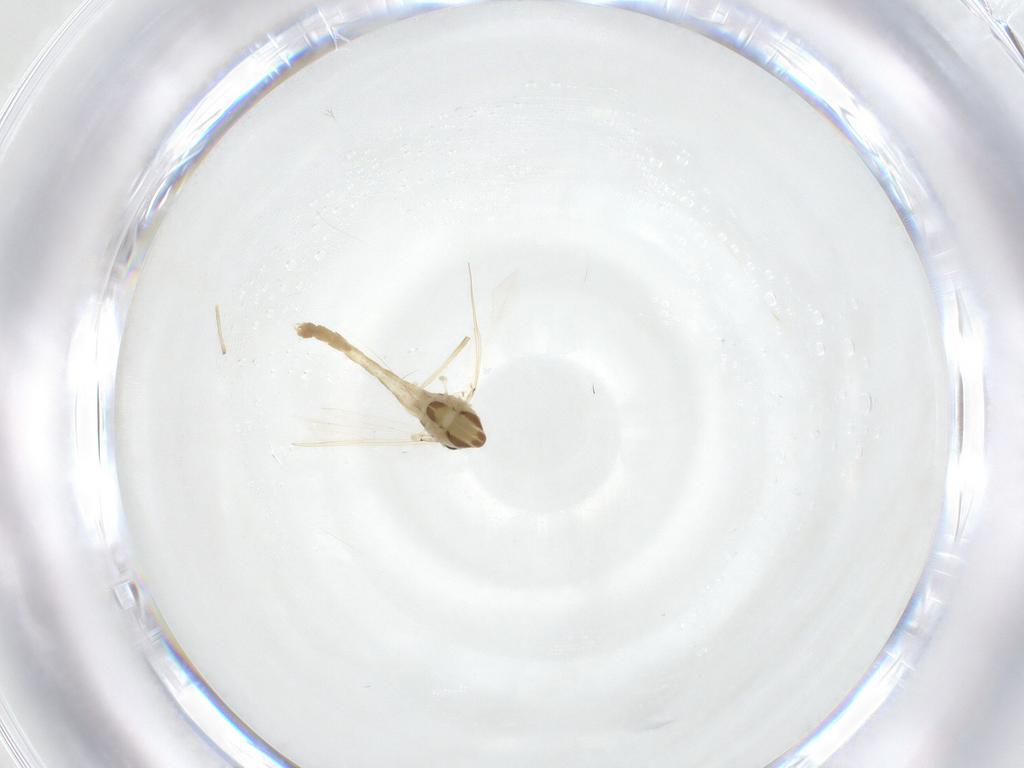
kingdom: Animalia
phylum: Arthropoda
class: Insecta
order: Diptera
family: Chironomidae
